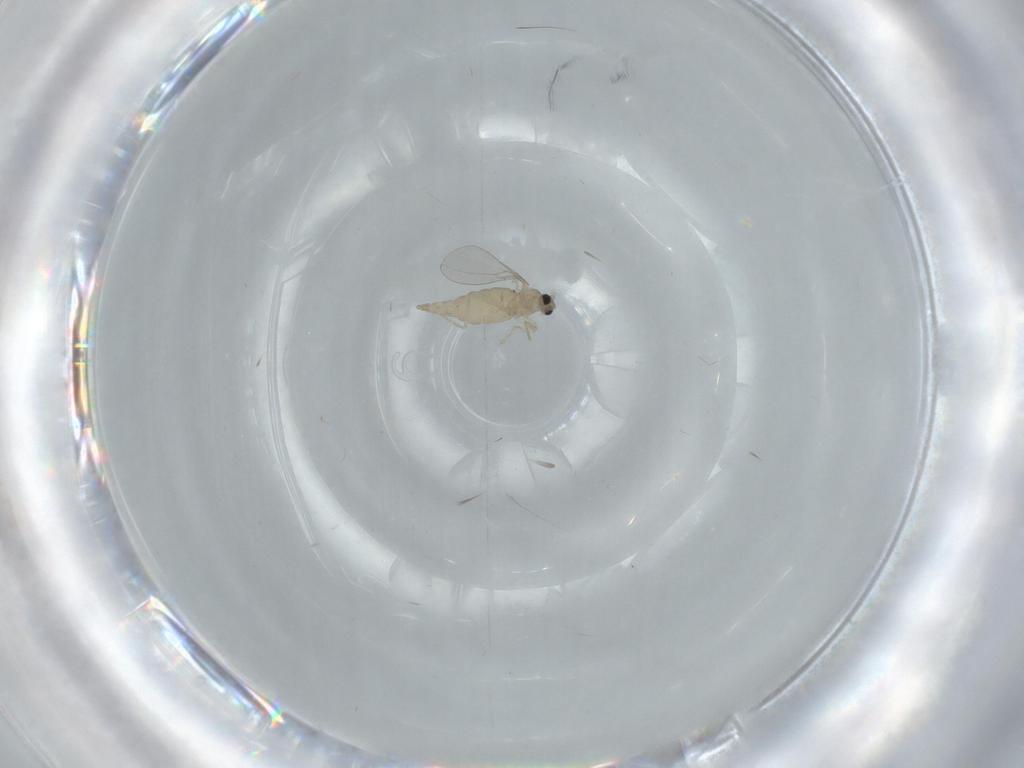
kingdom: Animalia
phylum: Arthropoda
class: Insecta
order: Diptera
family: Cecidomyiidae
